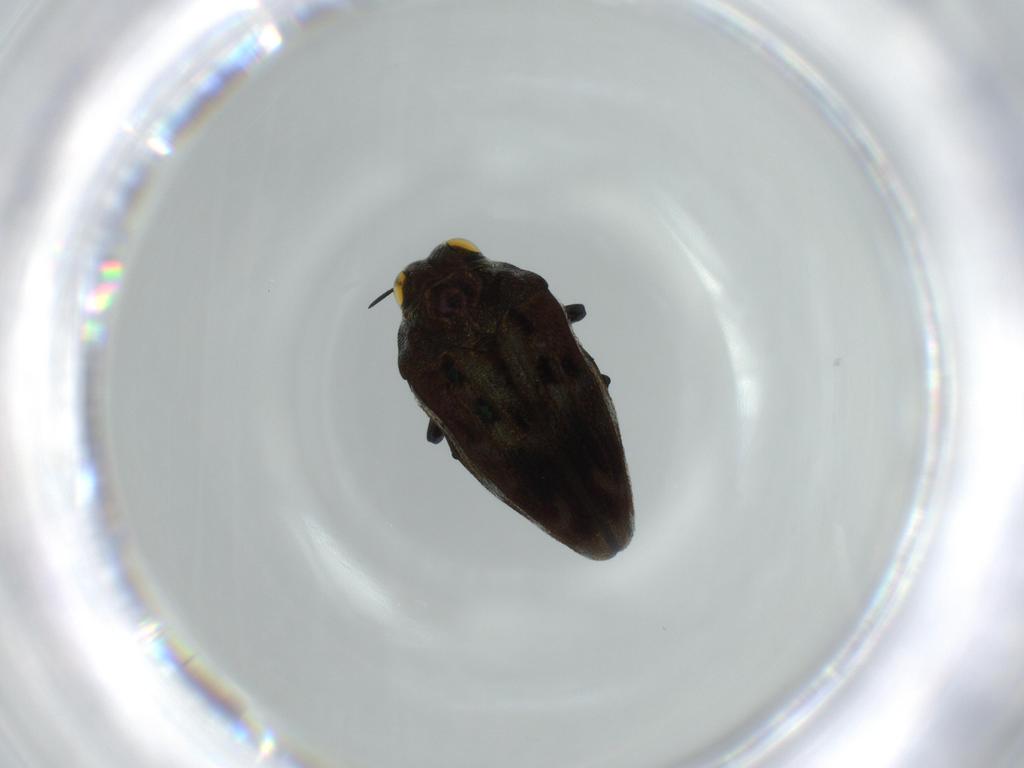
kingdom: Animalia
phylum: Arthropoda
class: Insecta
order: Coleoptera
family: Buprestidae
